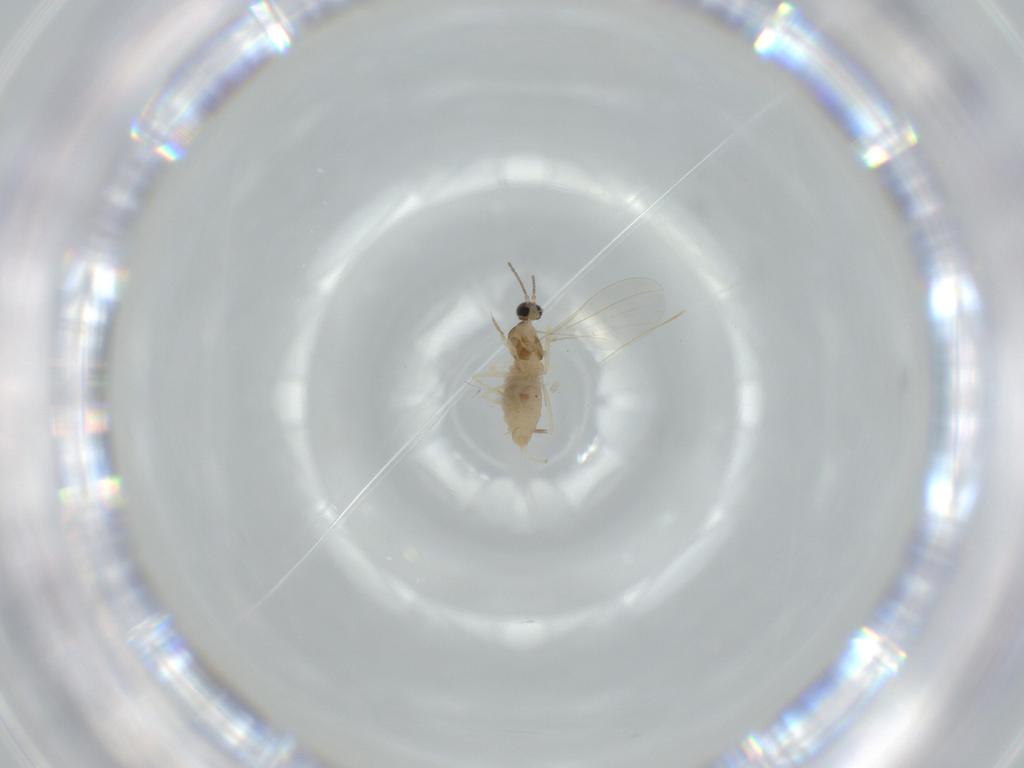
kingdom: Animalia
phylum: Arthropoda
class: Insecta
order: Diptera
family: Cecidomyiidae
